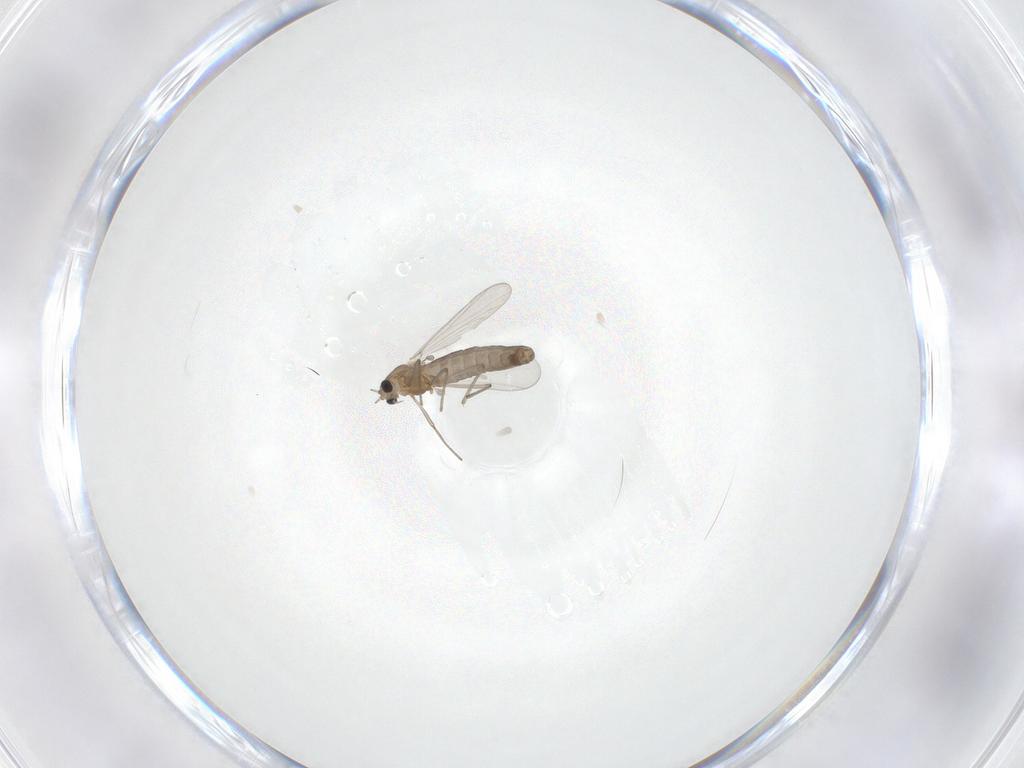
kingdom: Animalia
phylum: Arthropoda
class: Insecta
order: Diptera
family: Chironomidae
